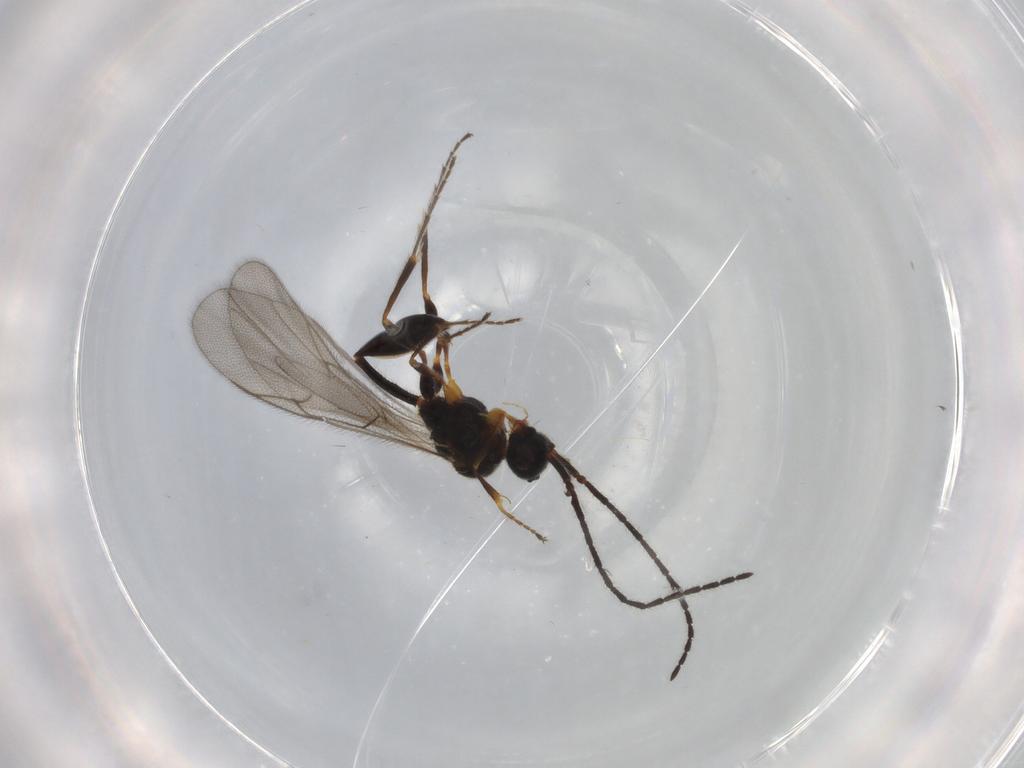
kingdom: Animalia
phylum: Arthropoda
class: Insecta
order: Hymenoptera
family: Diapriidae
